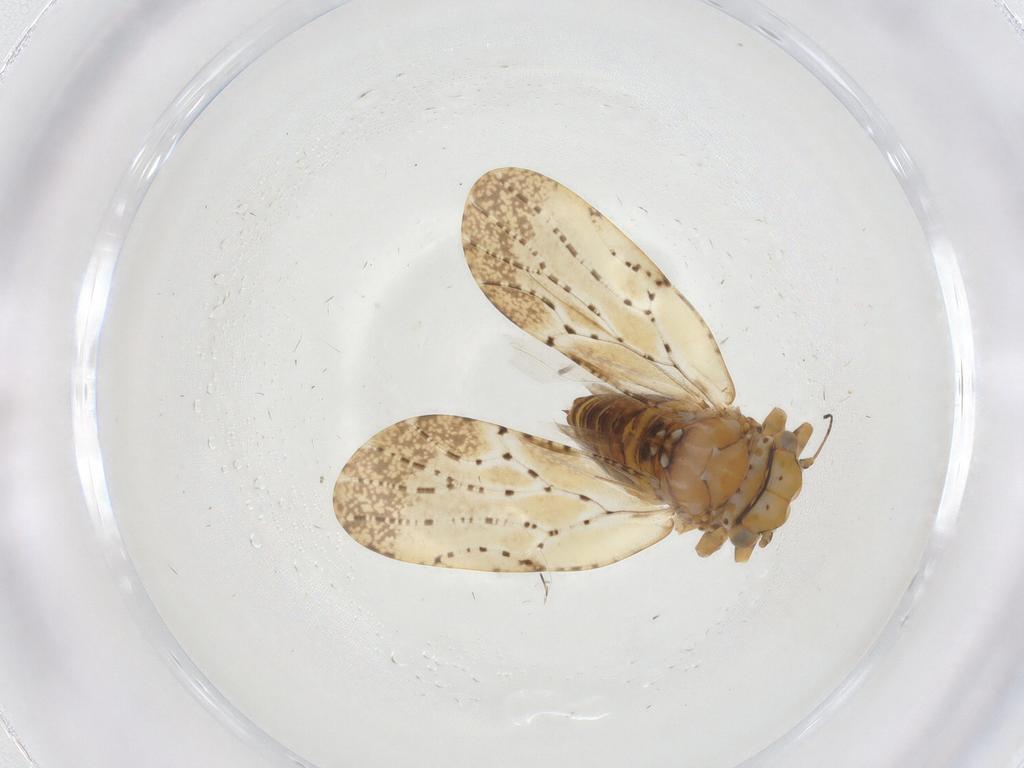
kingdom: Animalia
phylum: Arthropoda
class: Insecta
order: Hemiptera
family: Liviidae
